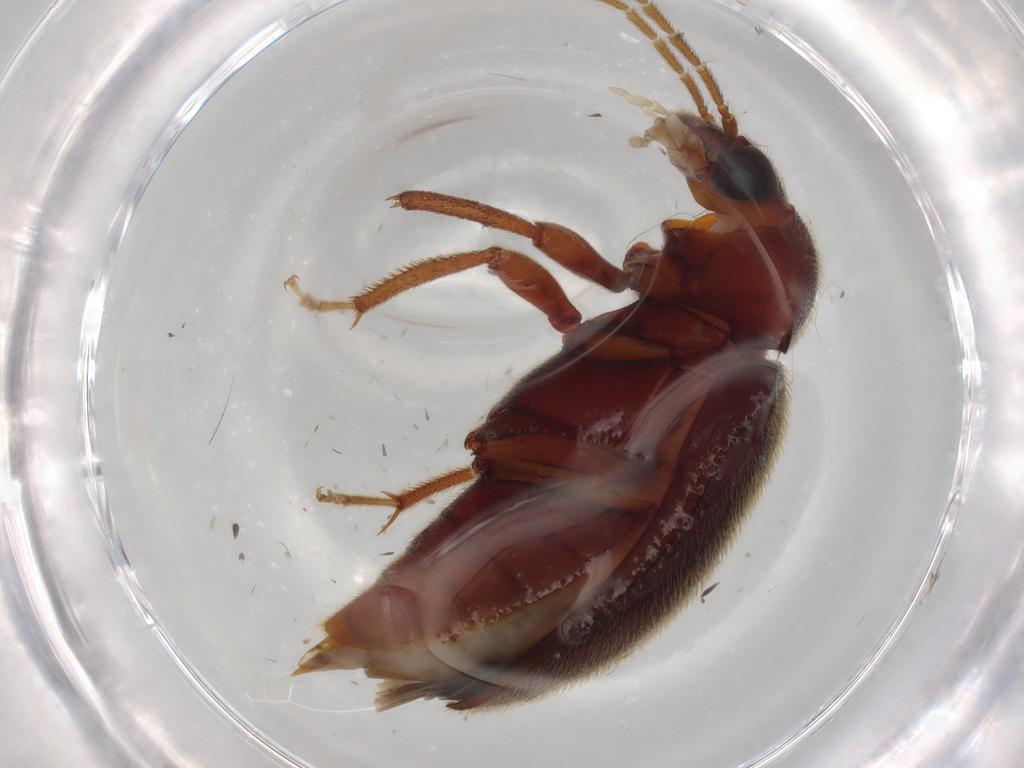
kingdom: Animalia
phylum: Arthropoda
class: Insecta
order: Coleoptera
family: Ptilodactylidae
